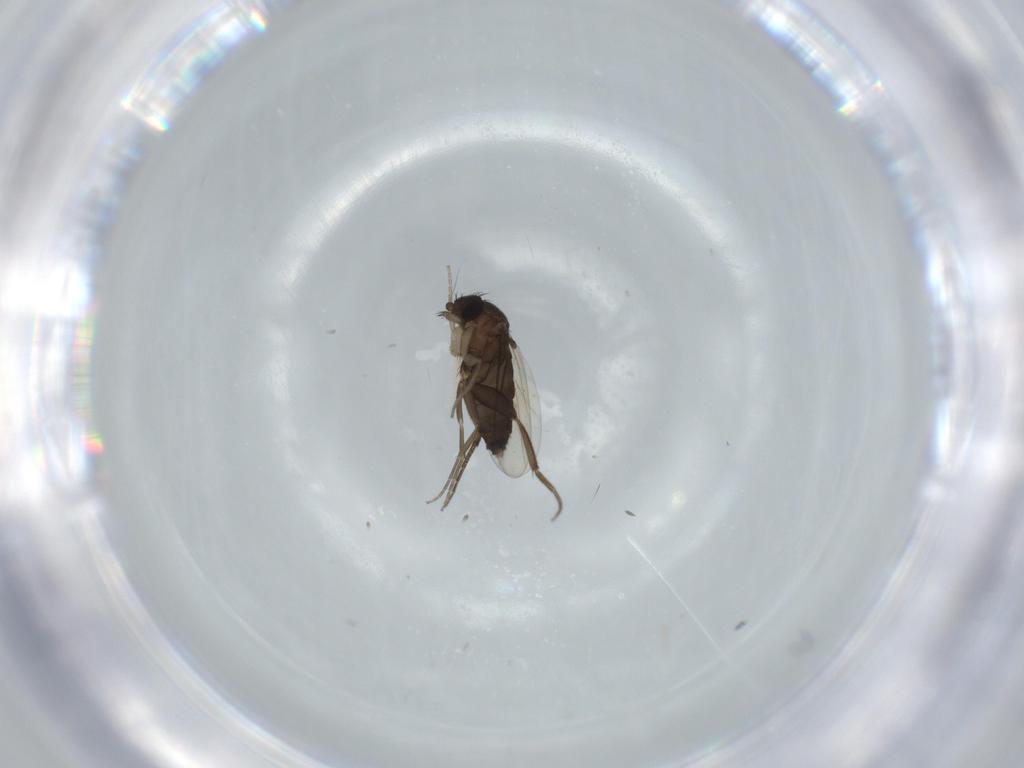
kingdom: Animalia
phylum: Arthropoda
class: Insecta
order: Diptera
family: Phoridae
